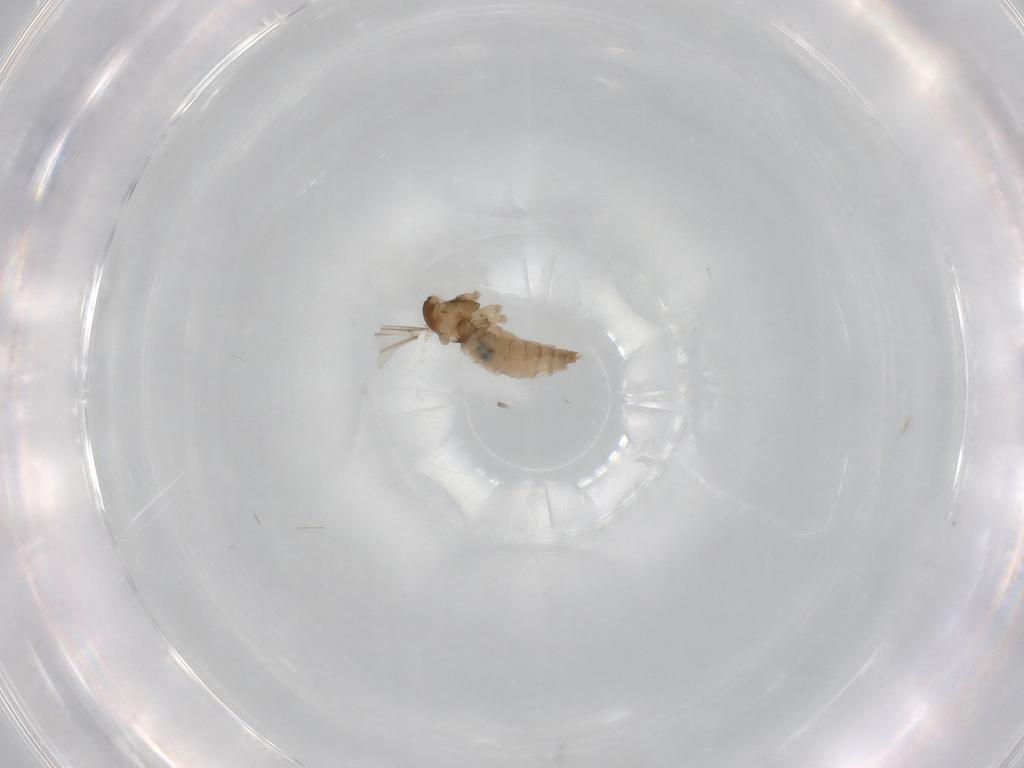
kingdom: Animalia
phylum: Arthropoda
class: Insecta
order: Diptera
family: Cecidomyiidae
